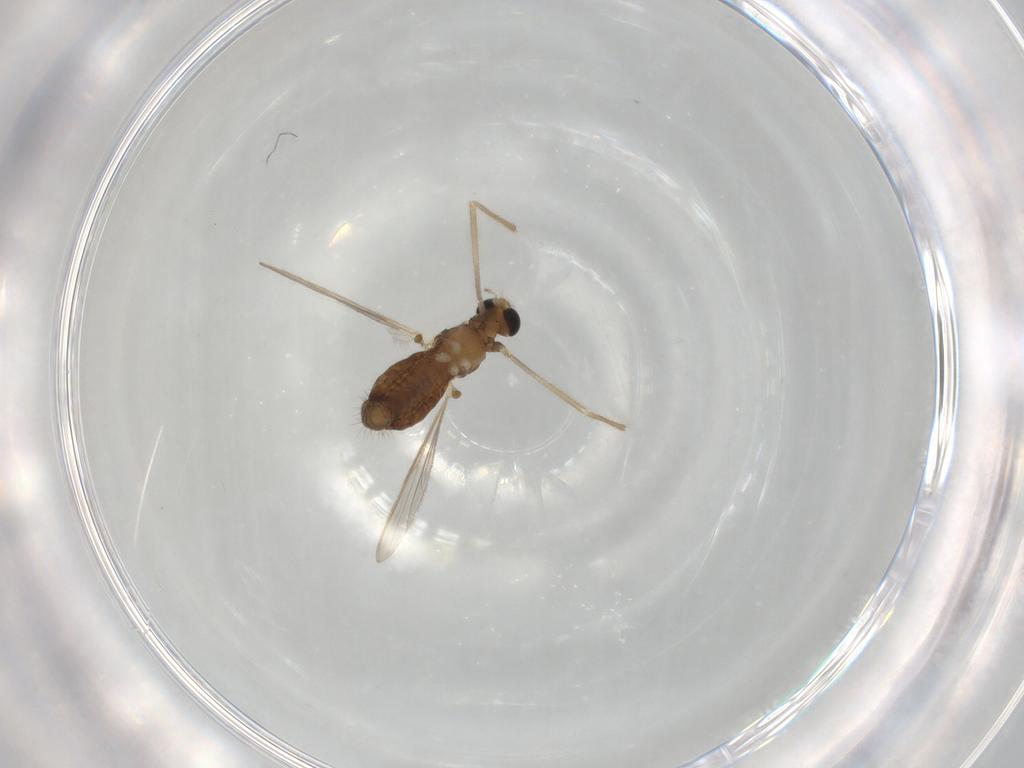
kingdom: Animalia
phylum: Arthropoda
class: Insecta
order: Diptera
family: Chironomidae
